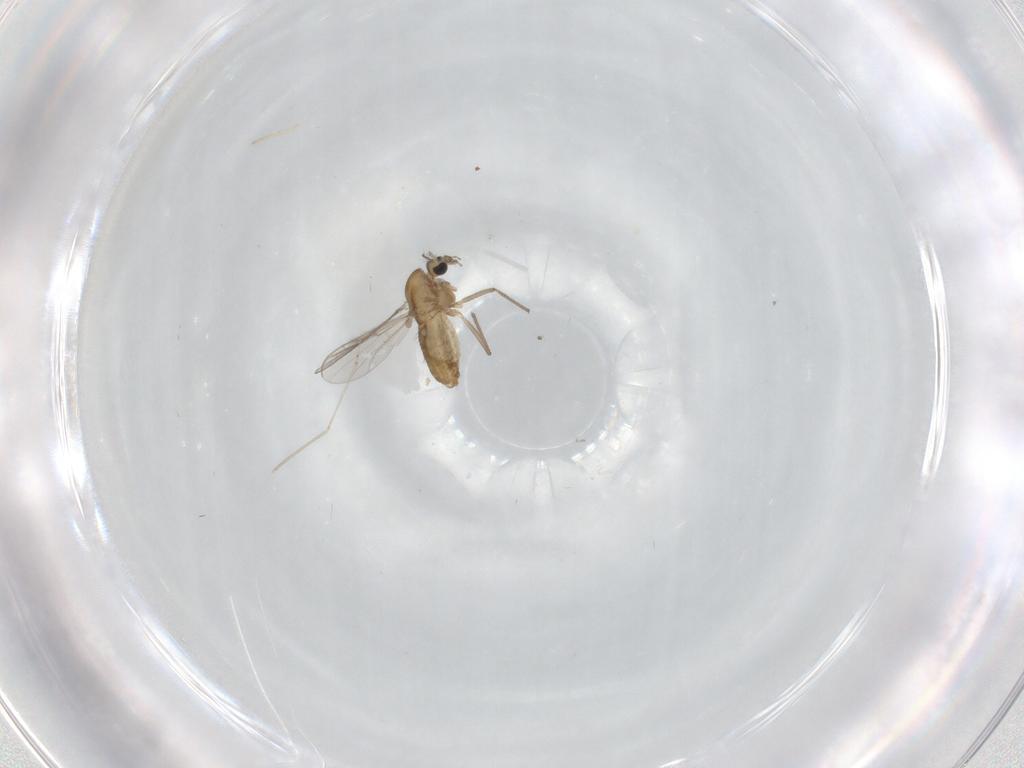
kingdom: Animalia
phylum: Arthropoda
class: Insecta
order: Diptera
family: Chironomidae
